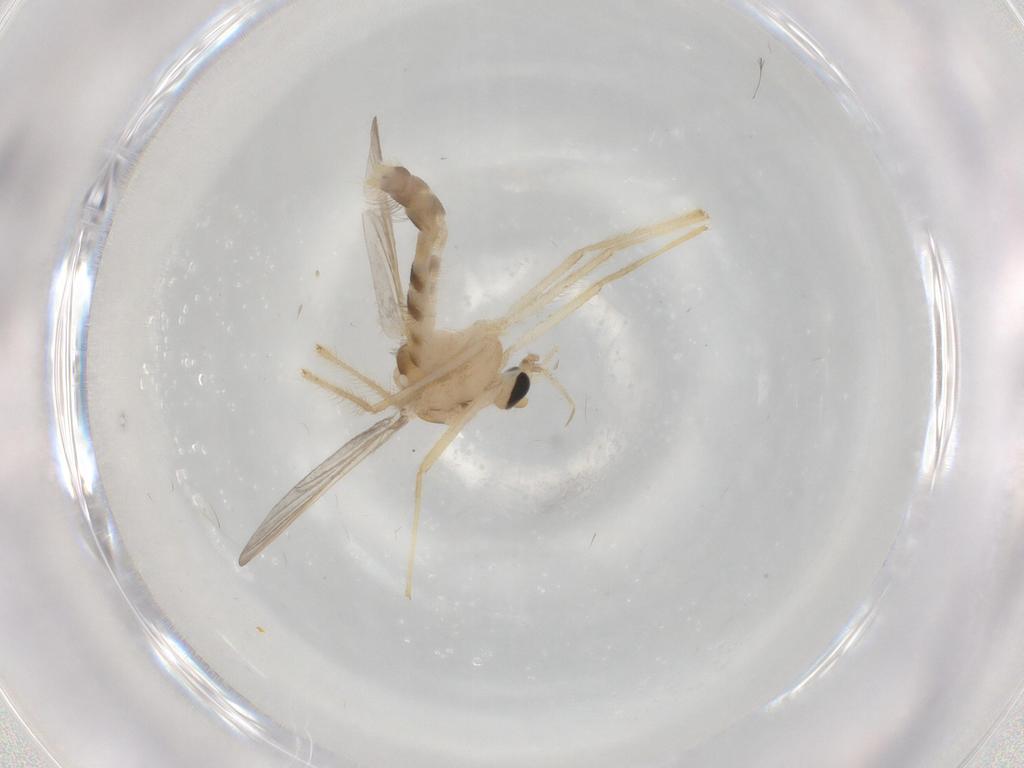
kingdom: Animalia
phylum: Arthropoda
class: Insecta
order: Diptera
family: Chironomidae
